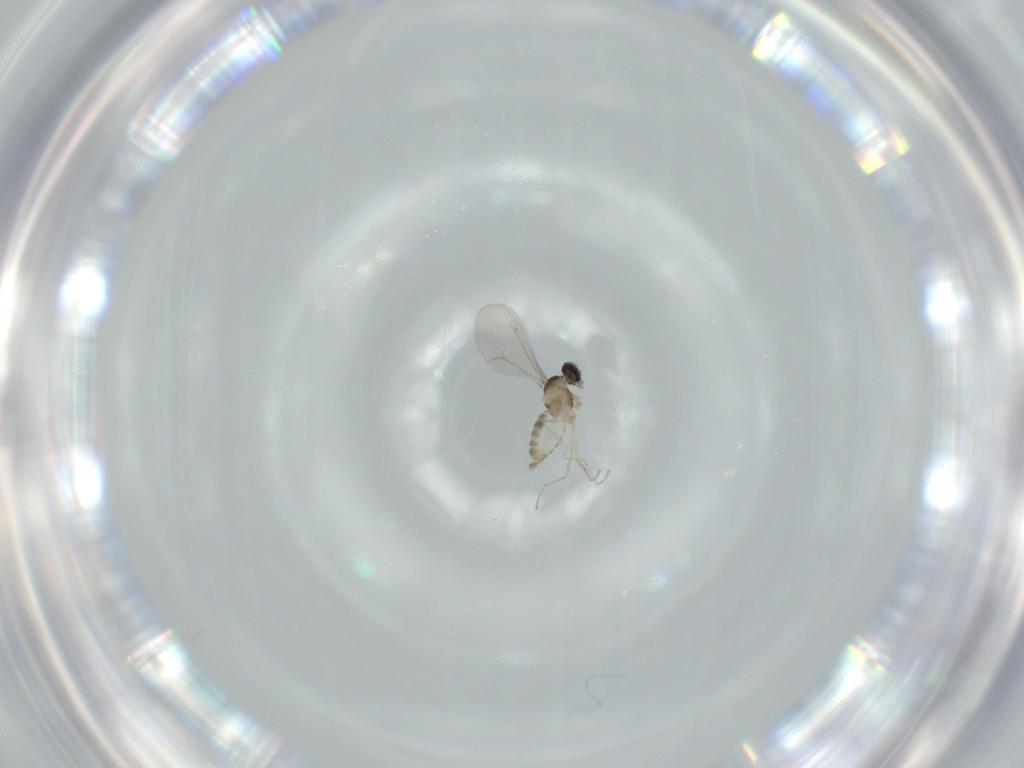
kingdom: Animalia
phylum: Arthropoda
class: Insecta
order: Diptera
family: Cecidomyiidae
